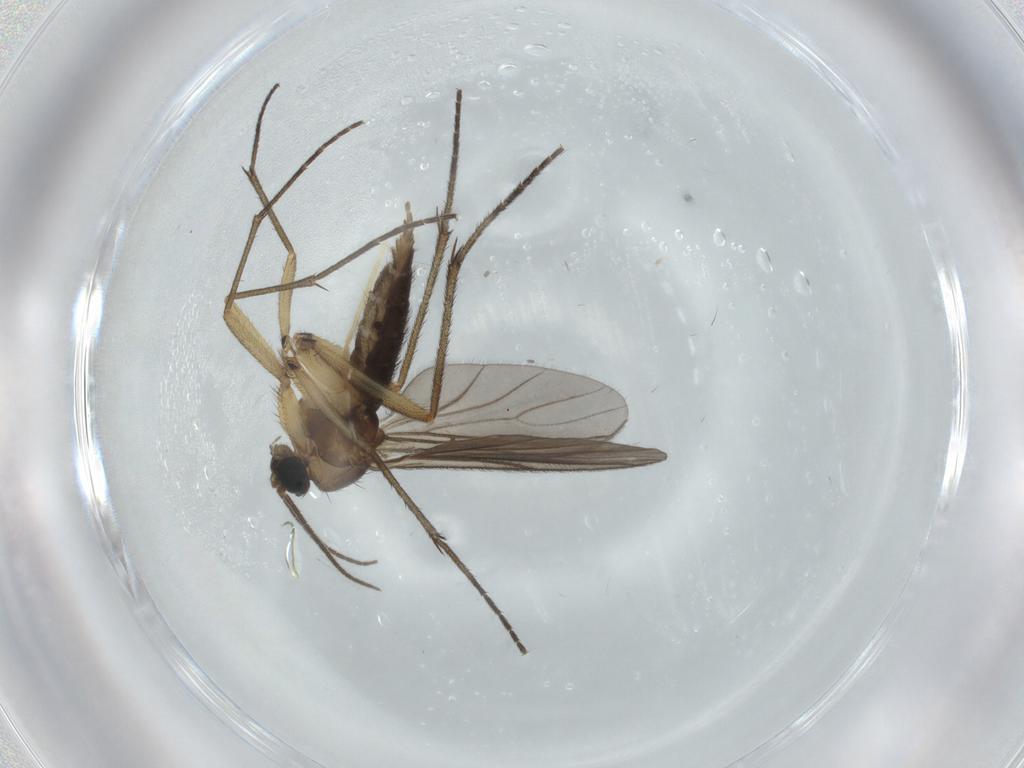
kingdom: Animalia
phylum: Arthropoda
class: Insecta
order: Diptera
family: Sciaridae
